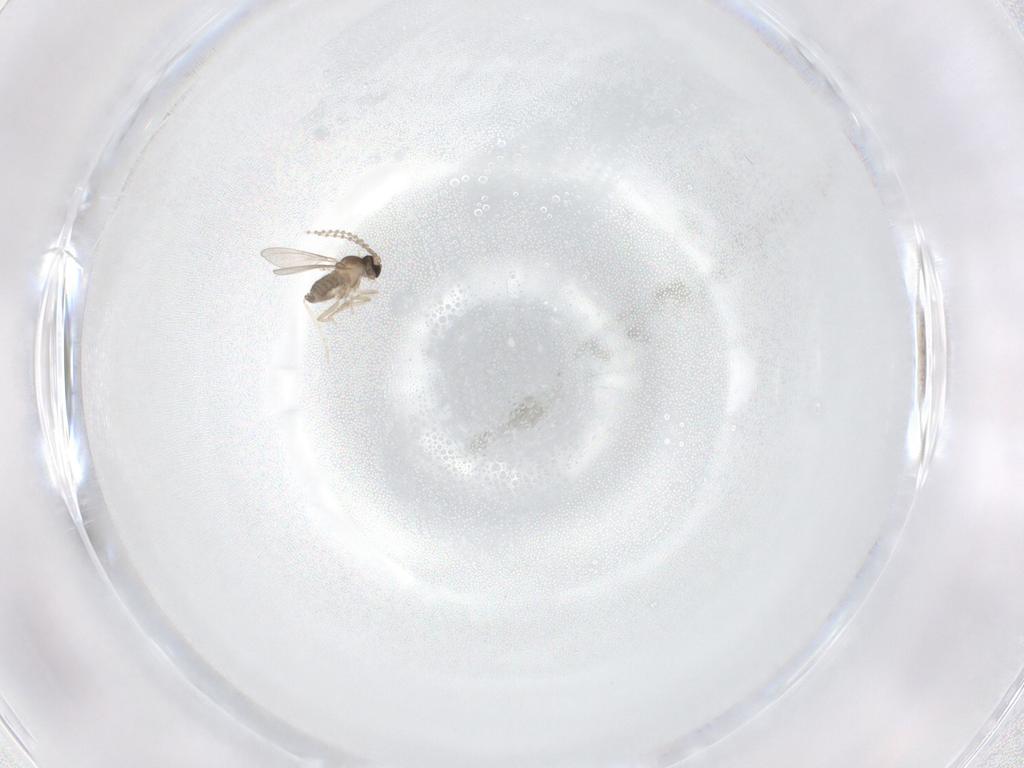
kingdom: Animalia
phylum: Arthropoda
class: Insecta
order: Diptera
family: Cecidomyiidae
